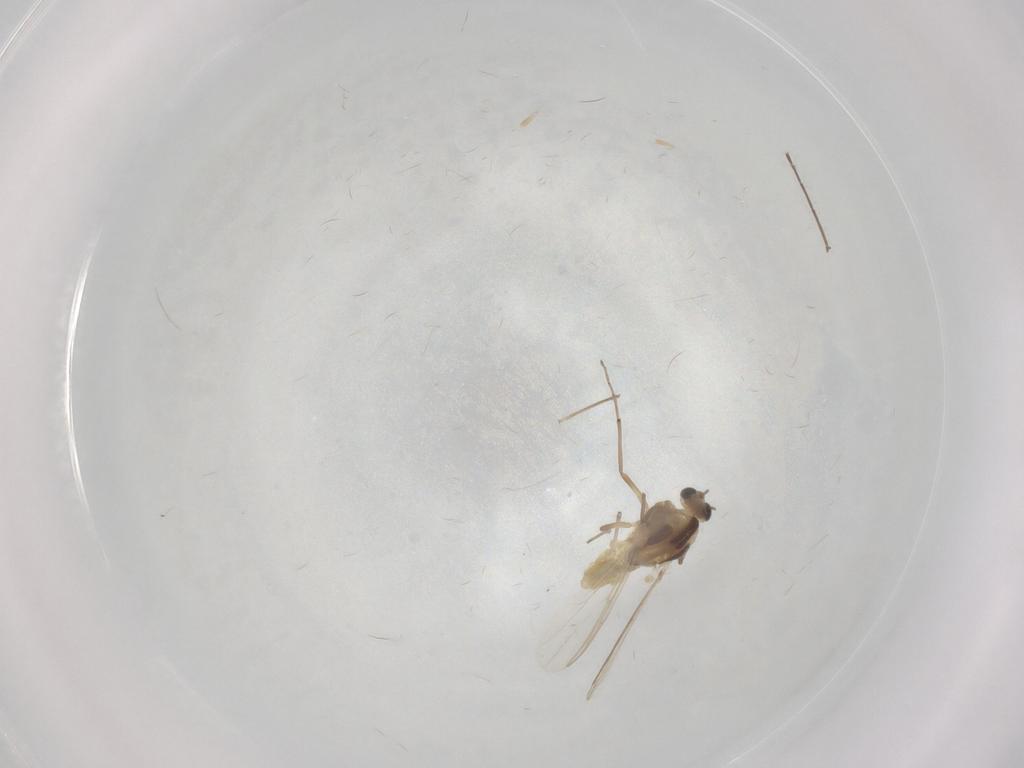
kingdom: Animalia
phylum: Arthropoda
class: Insecta
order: Diptera
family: Chironomidae
